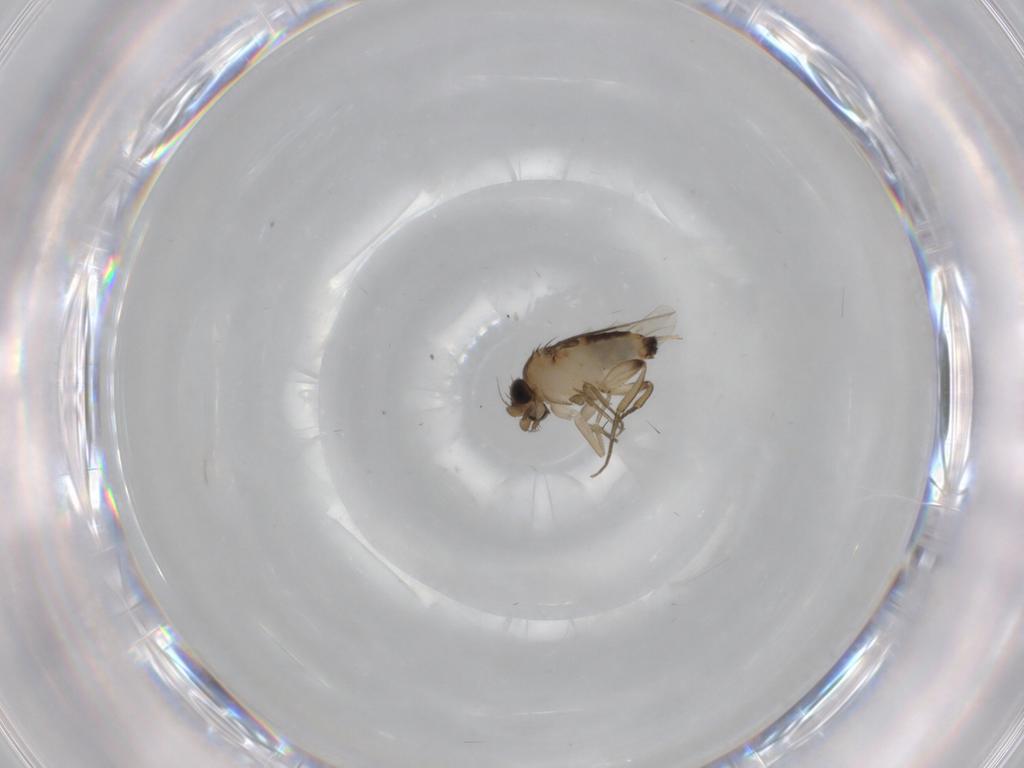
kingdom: Animalia
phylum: Arthropoda
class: Insecta
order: Diptera
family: Phoridae
